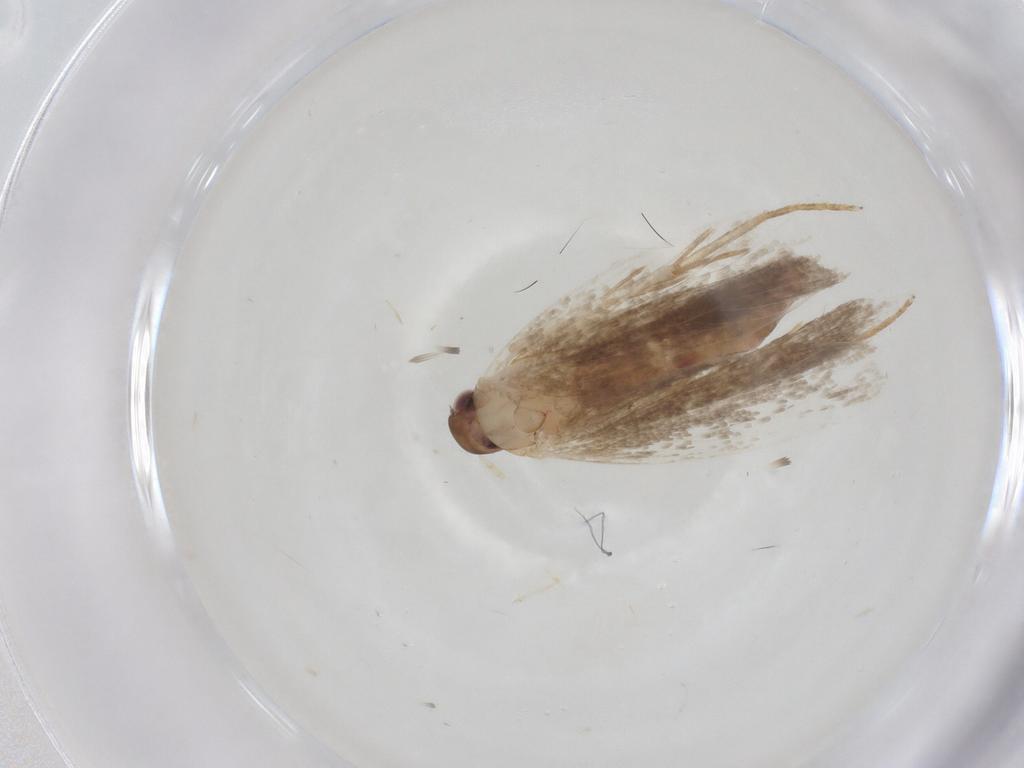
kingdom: Animalia
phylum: Arthropoda
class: Insecta
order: Lepidoptera
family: Gelechiidae
